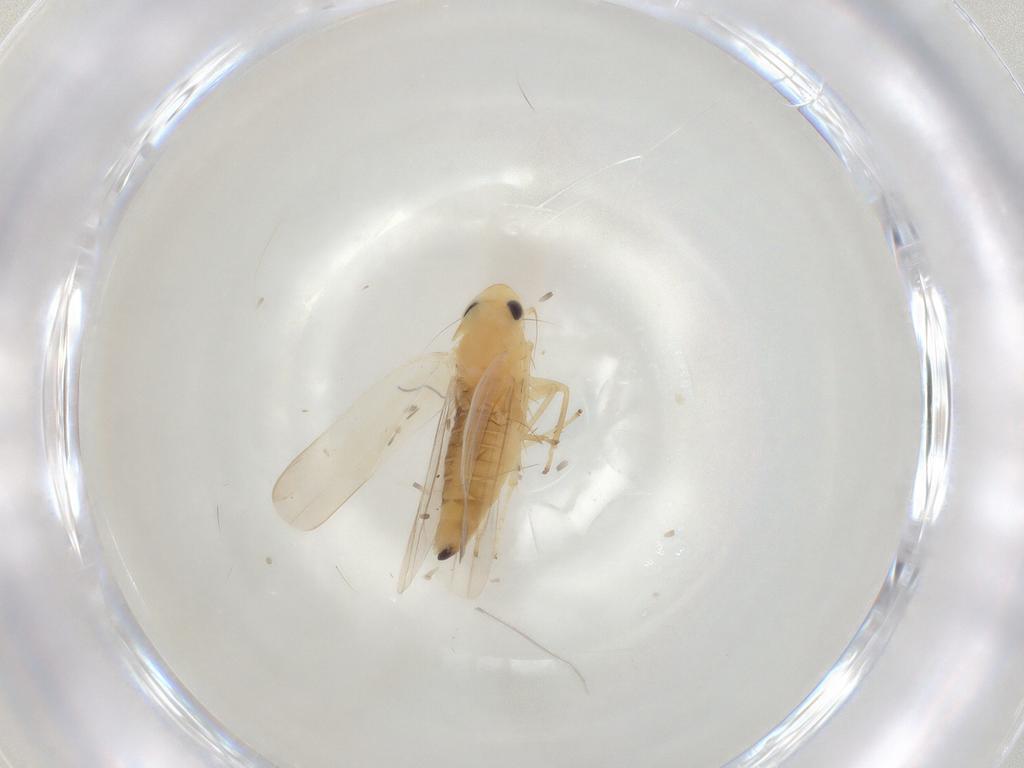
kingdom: Animalia
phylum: Arthropoda
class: Insecta
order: Hemiptera
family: Cicadellidae
